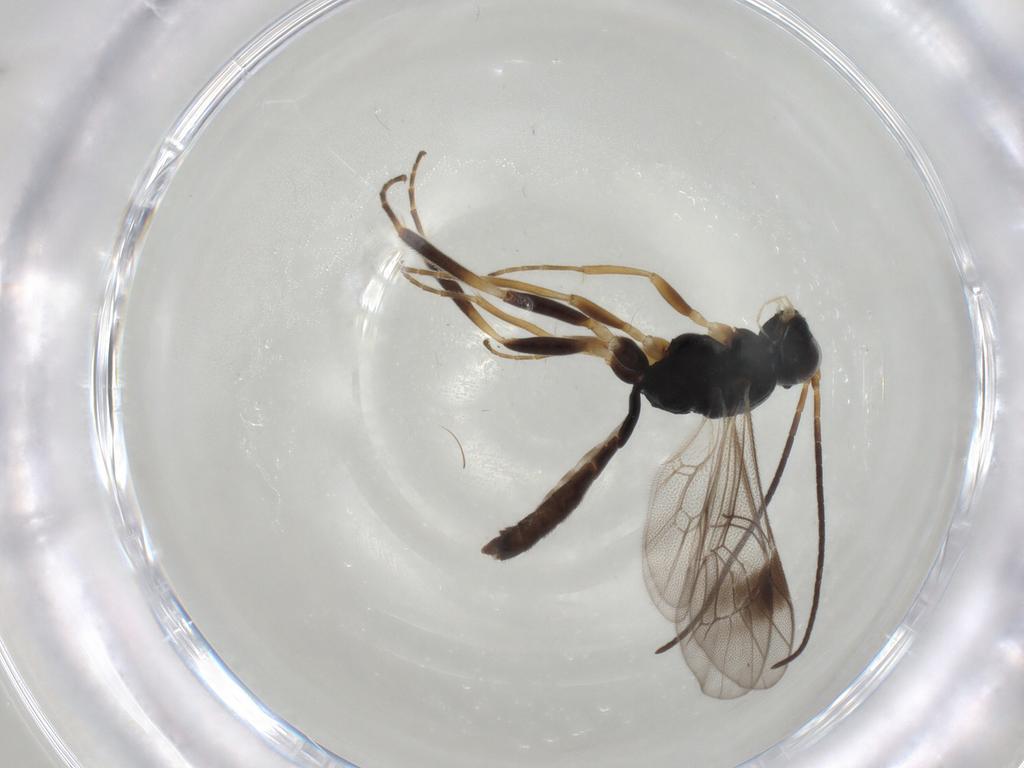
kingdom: Animalia
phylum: Arthropoda
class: Insecta
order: Hymenoptera
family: Ichneumonidae
